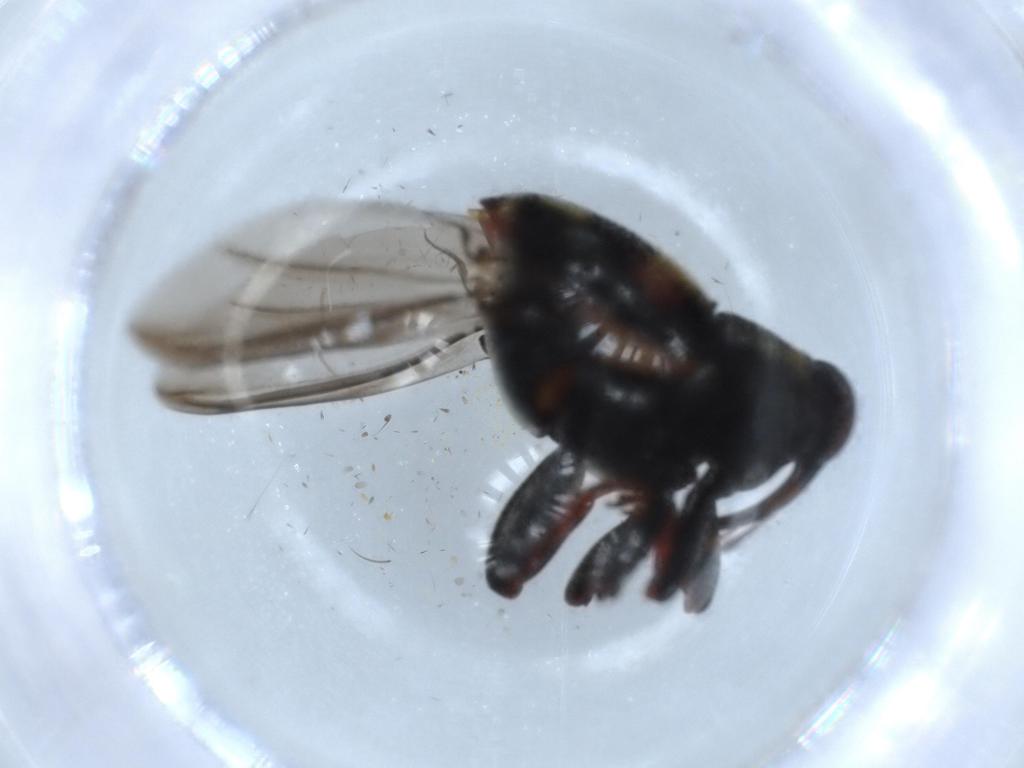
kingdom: Animalia
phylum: Arthropoda
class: Insecta
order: Coleoptera
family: Curculionidae
